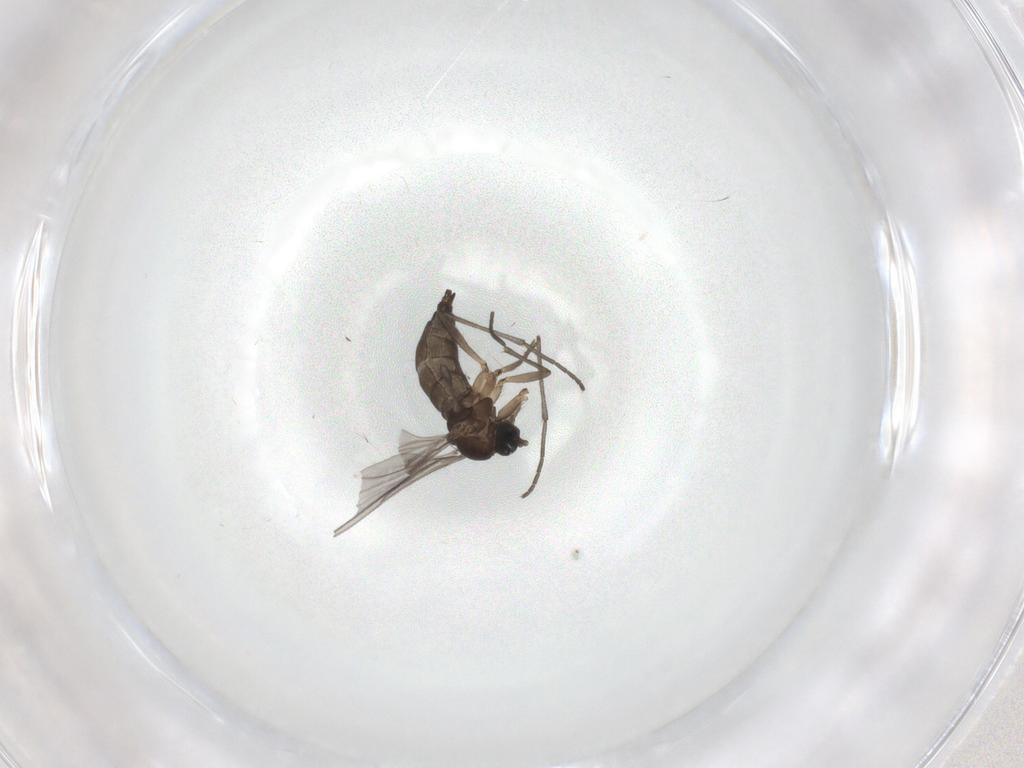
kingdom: Animalia
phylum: Arthropoda
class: Insecta
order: Diptera
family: Sciaridae
